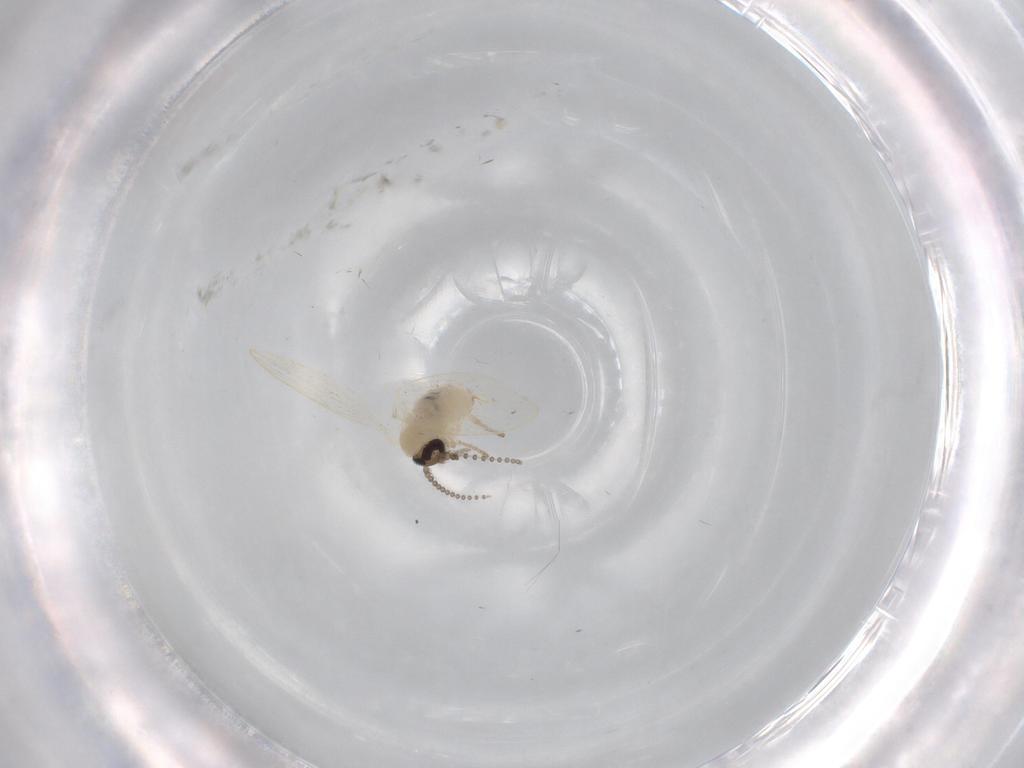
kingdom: Animalia
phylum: Arthropoda
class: Insecta
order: Diptera
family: Psychodidae
